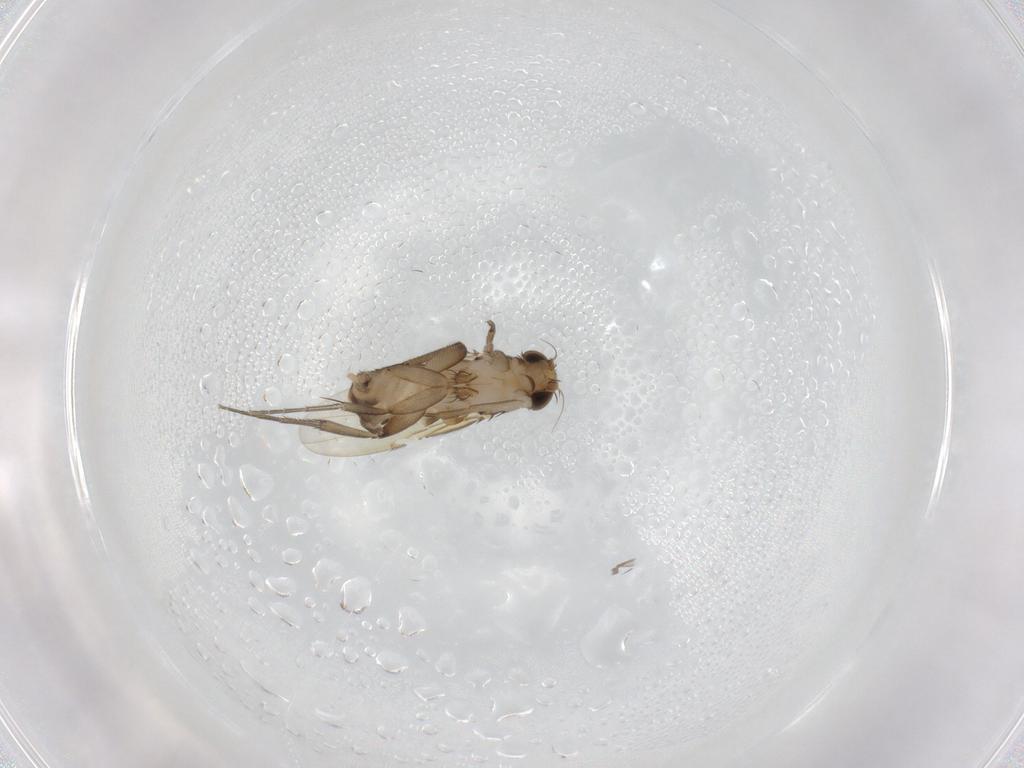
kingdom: Animalia
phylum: Arthropoda
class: Insecta
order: Diptera
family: Phoridae
